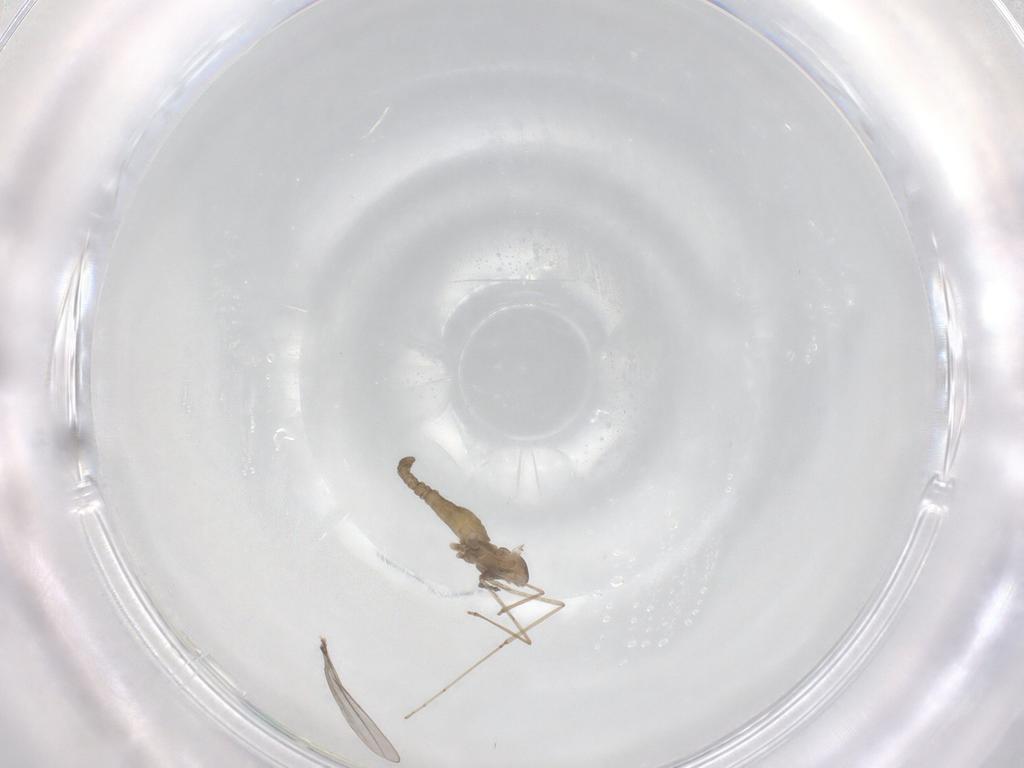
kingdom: Animalia
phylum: Arthropoda
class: Insecta
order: Diptera
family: Cecidomyiidae
